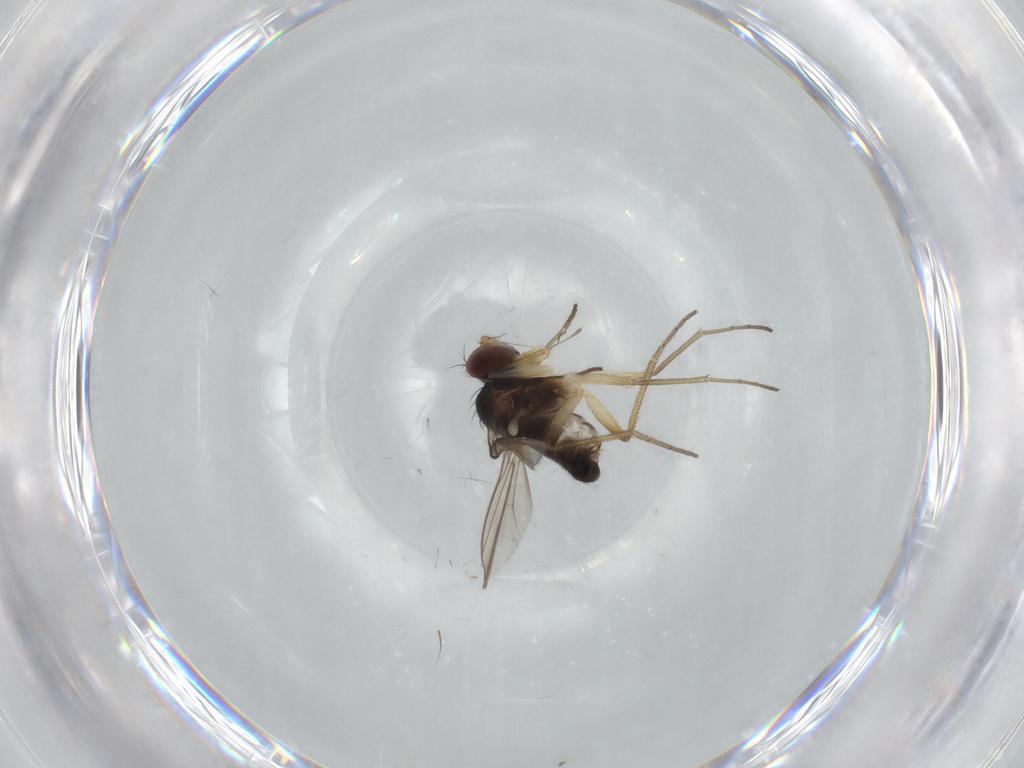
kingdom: Animalia
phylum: Arthropoda
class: Insecta
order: Diptera
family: Dolichopodidae
